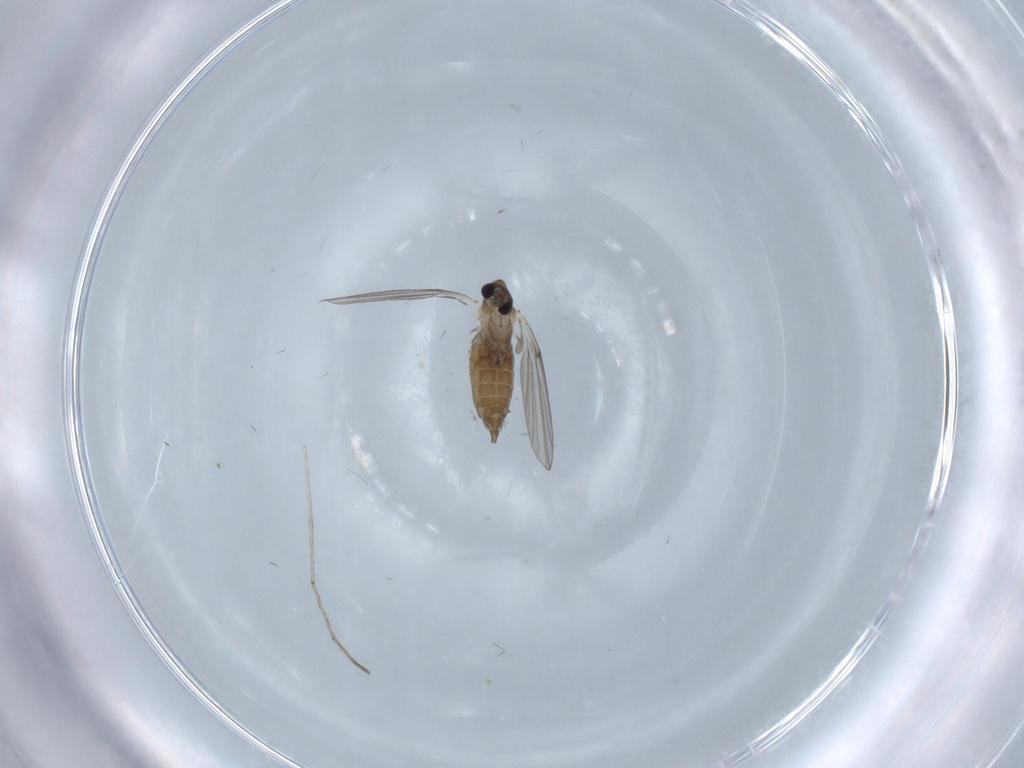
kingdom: Animalia
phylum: Arthropoda
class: Insecta
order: Diptera
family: Psychodidae
